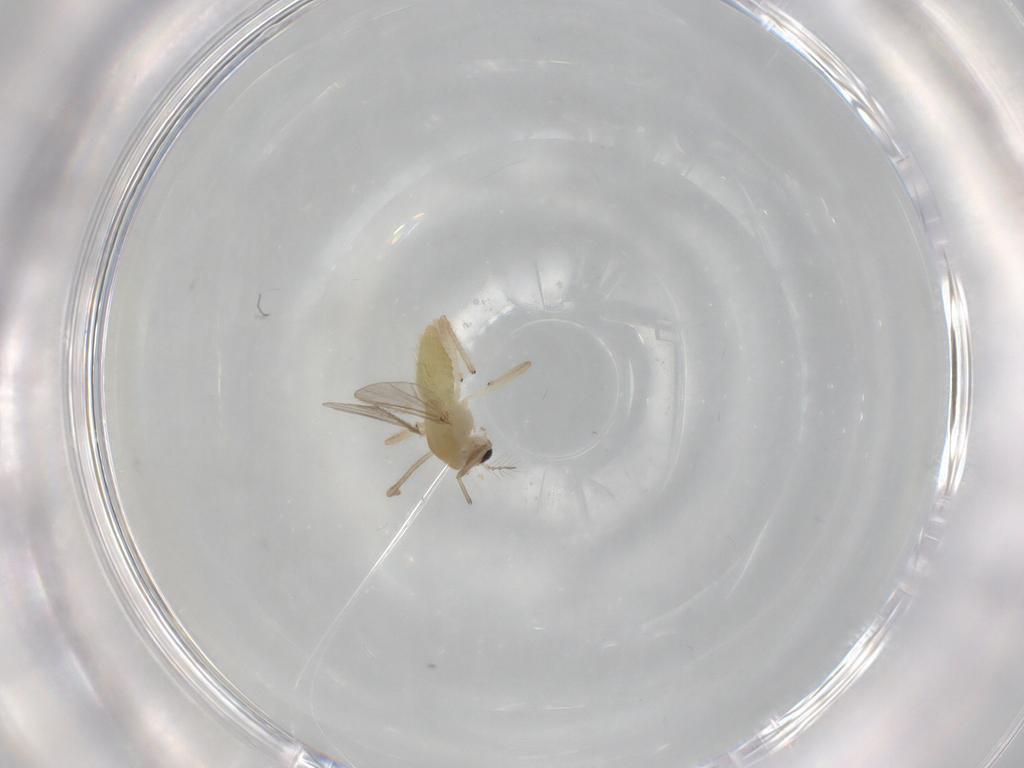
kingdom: Animalia
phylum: Arthropoda
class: Insecta
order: Diptera
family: Chironomidae
